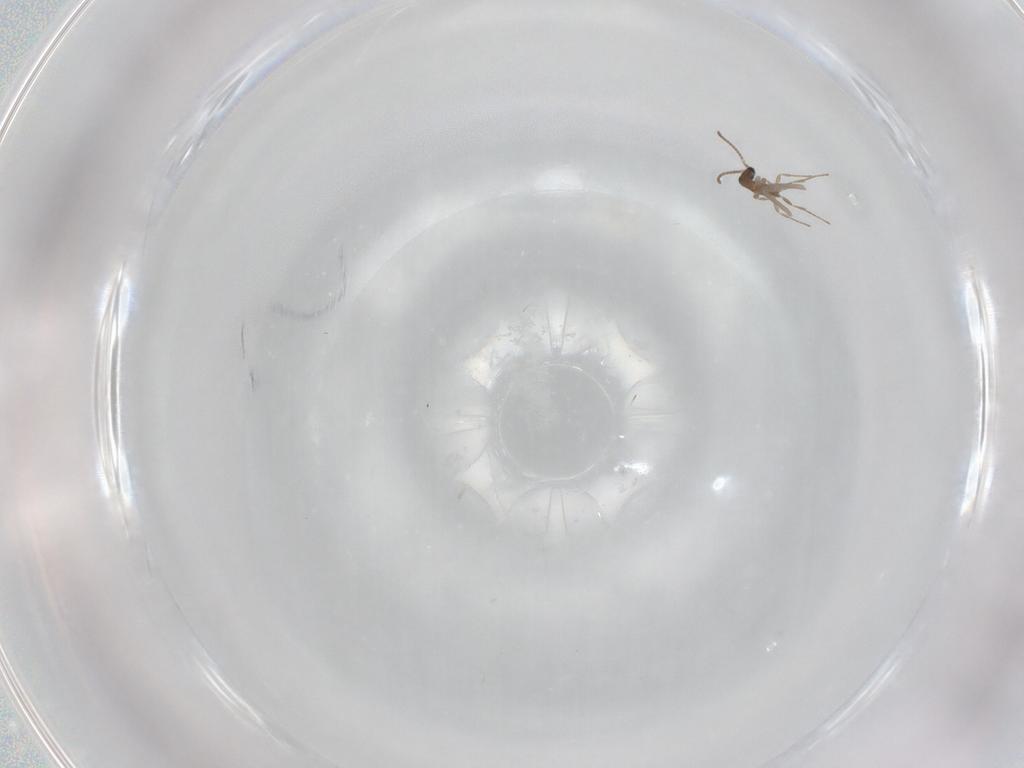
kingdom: Animalia
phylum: Arthropoda
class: Insecta
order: Hymenoptera
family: Formicidae
